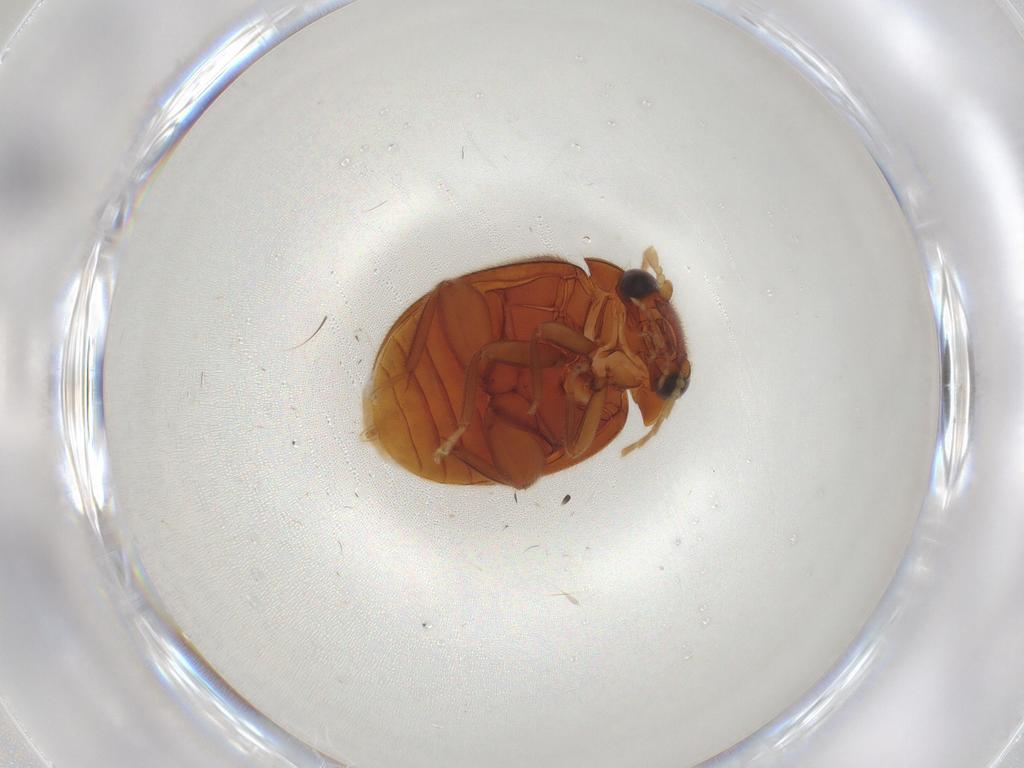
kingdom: Animalia
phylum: Arthropoda
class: Insecta
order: Coleoptera
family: Scirtidae
